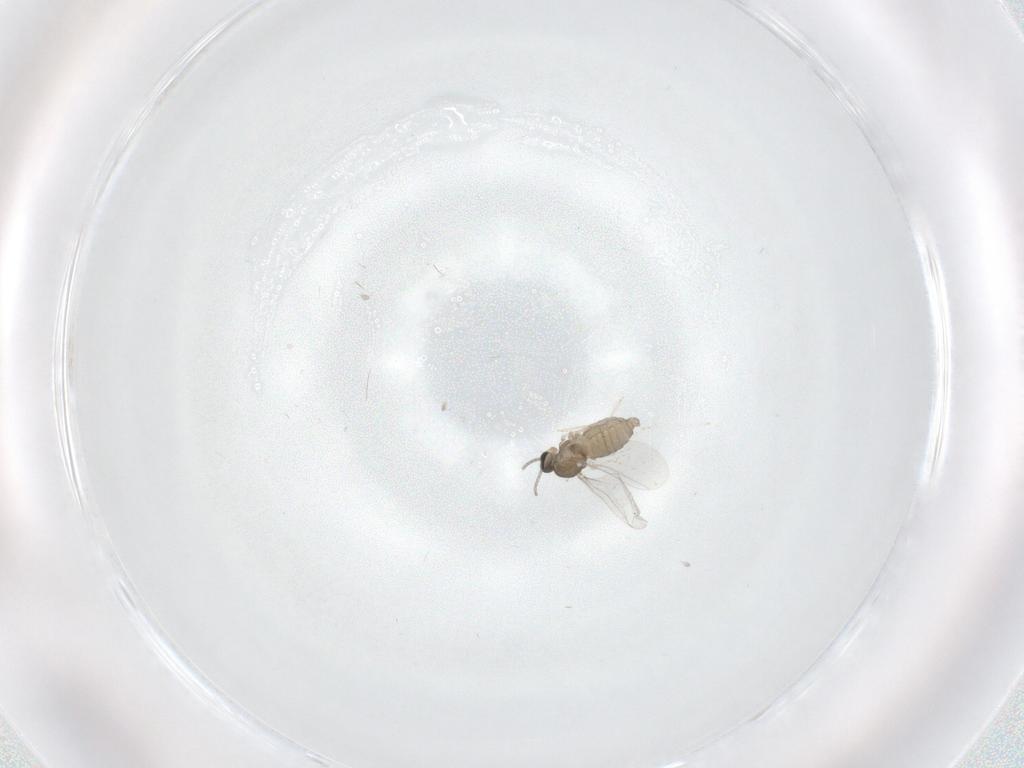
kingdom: Animalia
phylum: Arthropoda
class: Insecta
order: Diptera
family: Cecidomyiidae
